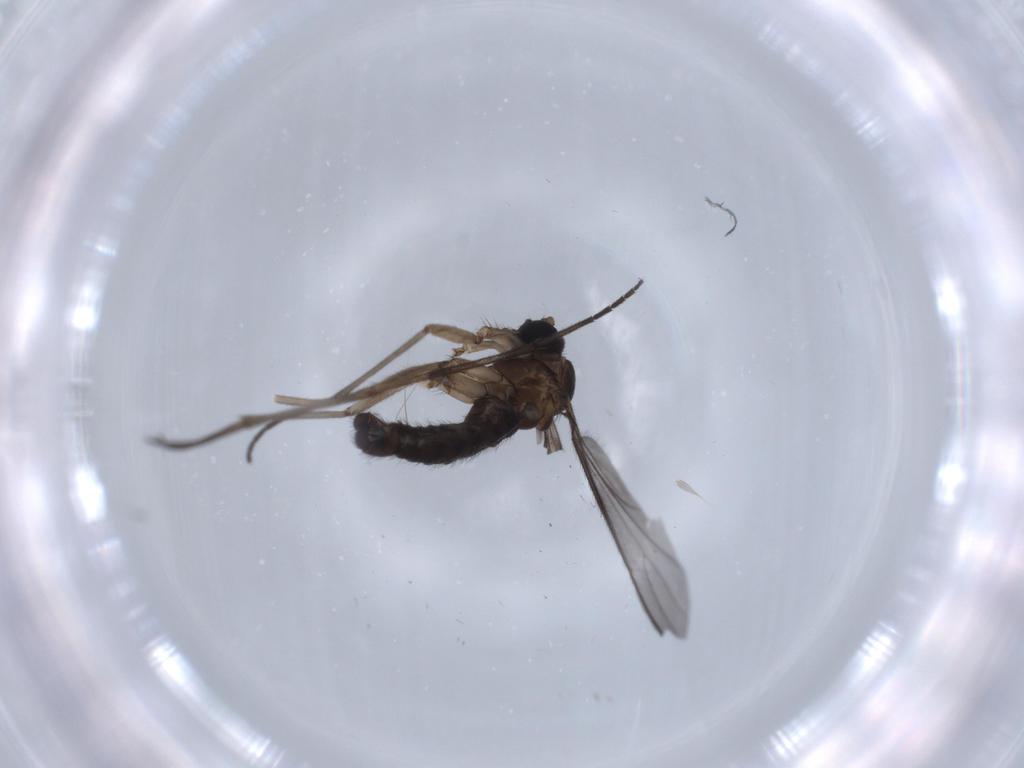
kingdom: Animalia
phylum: Arthropoda
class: Insecta
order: Diptera
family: Sciaridae
